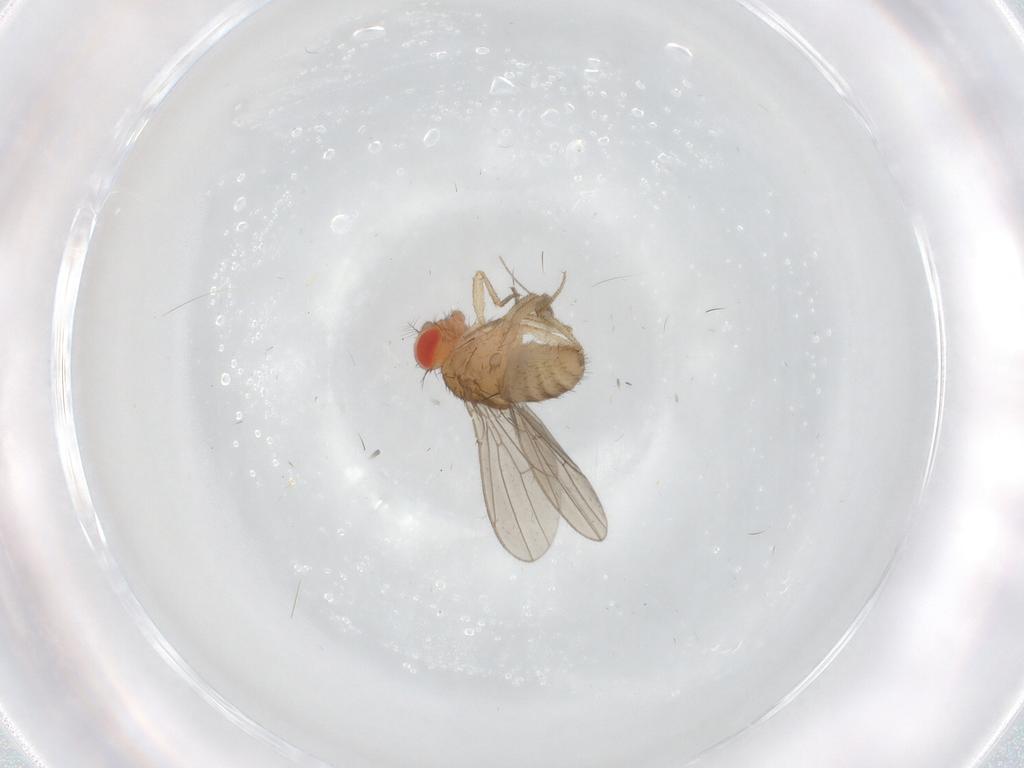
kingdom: Animalia
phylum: Arthropoda
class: Insecta
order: Diptera
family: Drosophilidae
